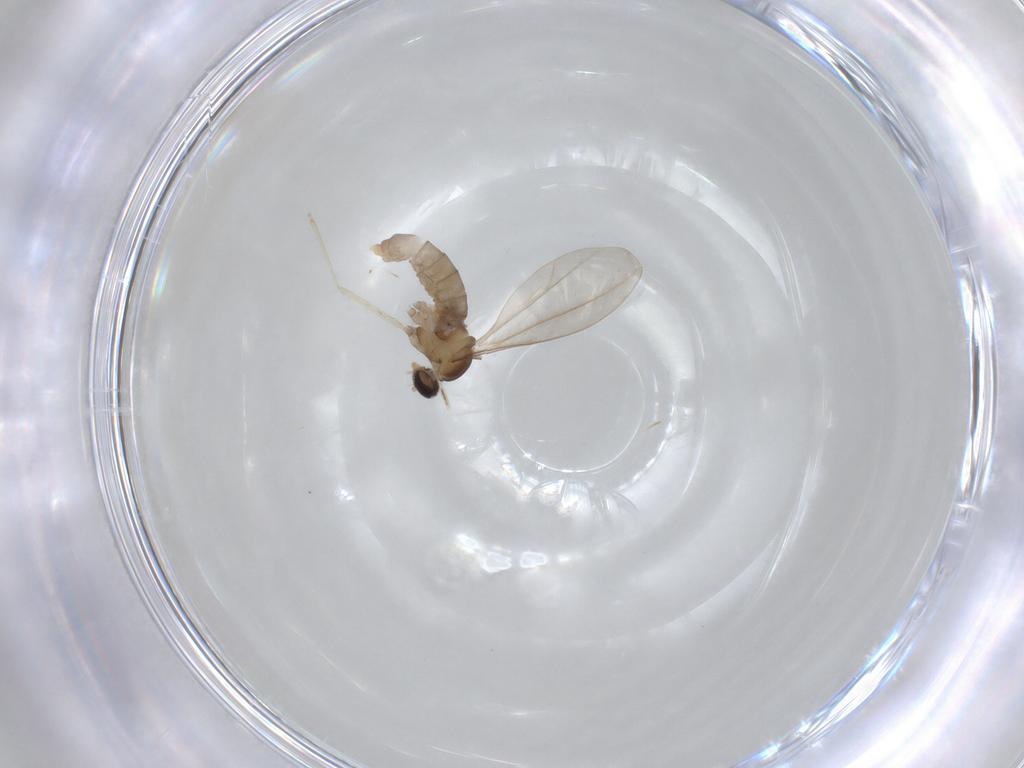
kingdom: Animalia
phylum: Arthropoda
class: Insecta
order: Diptera
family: Cecidomyiidae
